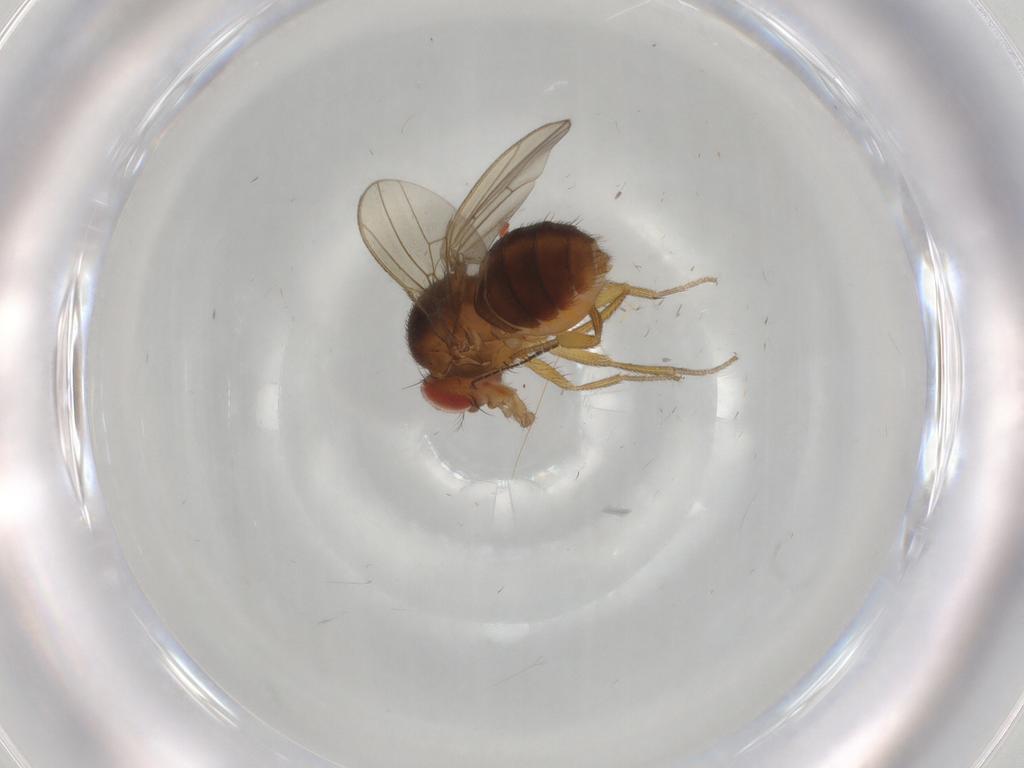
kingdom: Animalia
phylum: Arthropoda
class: Insecta
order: Diptera
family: Drosophilidae
